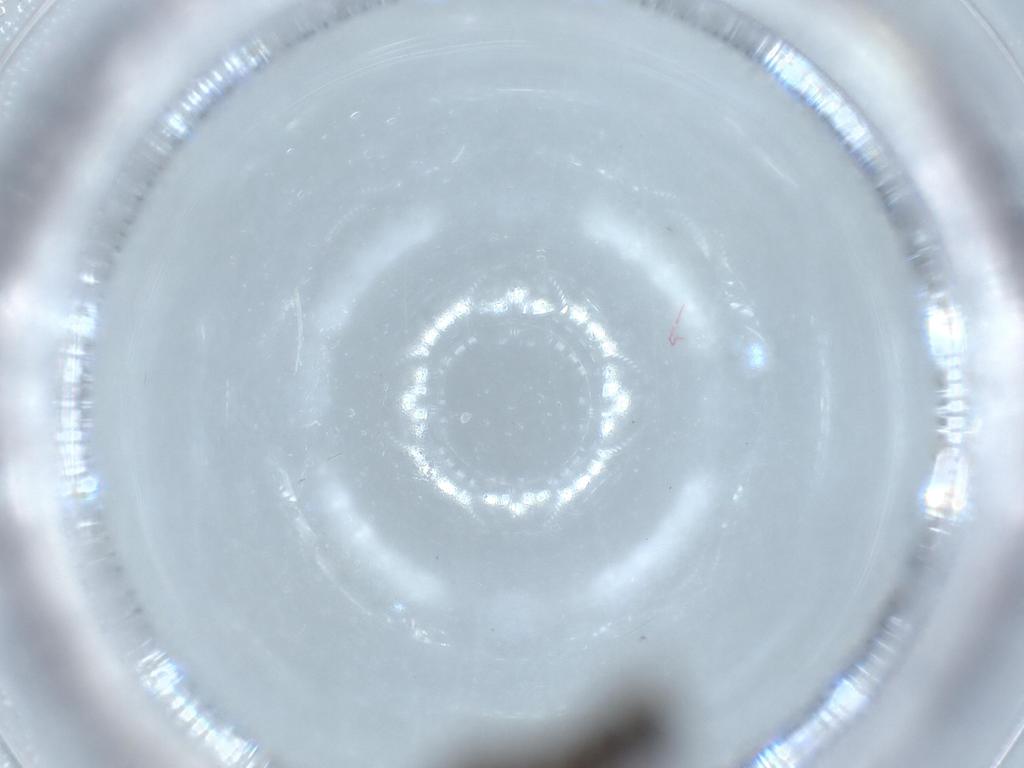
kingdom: Animalia
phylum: Arthropoda
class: Insecta
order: Hymenoptera
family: Formicidae
